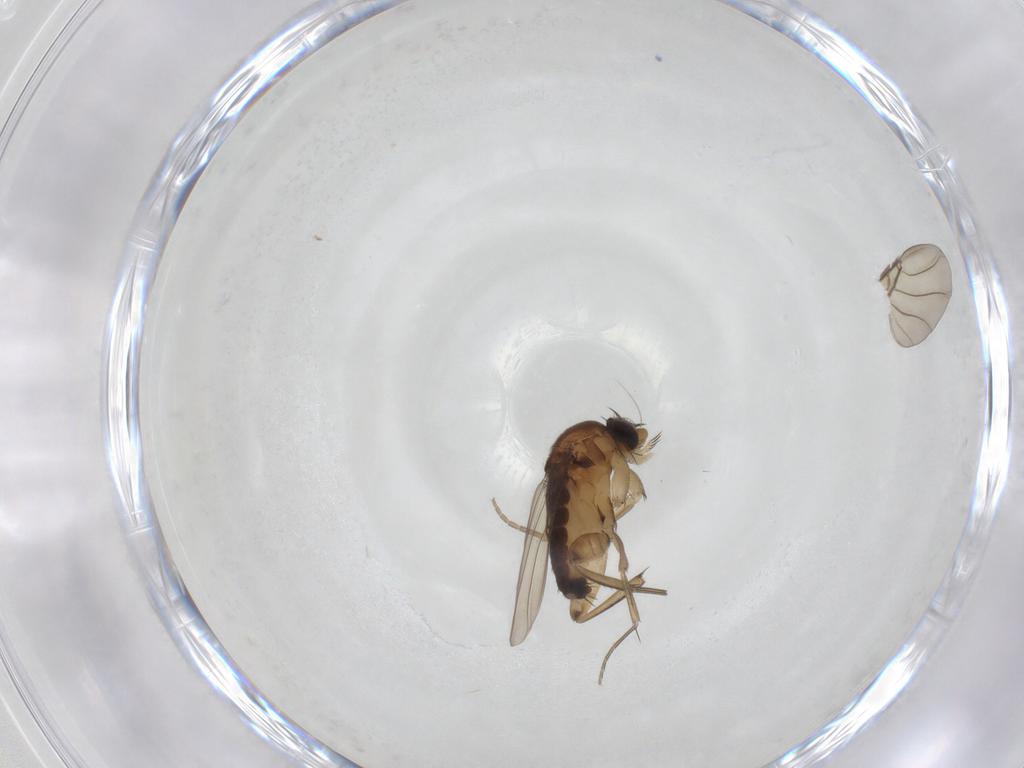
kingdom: Animalia
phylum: Arthropoda
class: Insecta
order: Diptera
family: Phoridae
